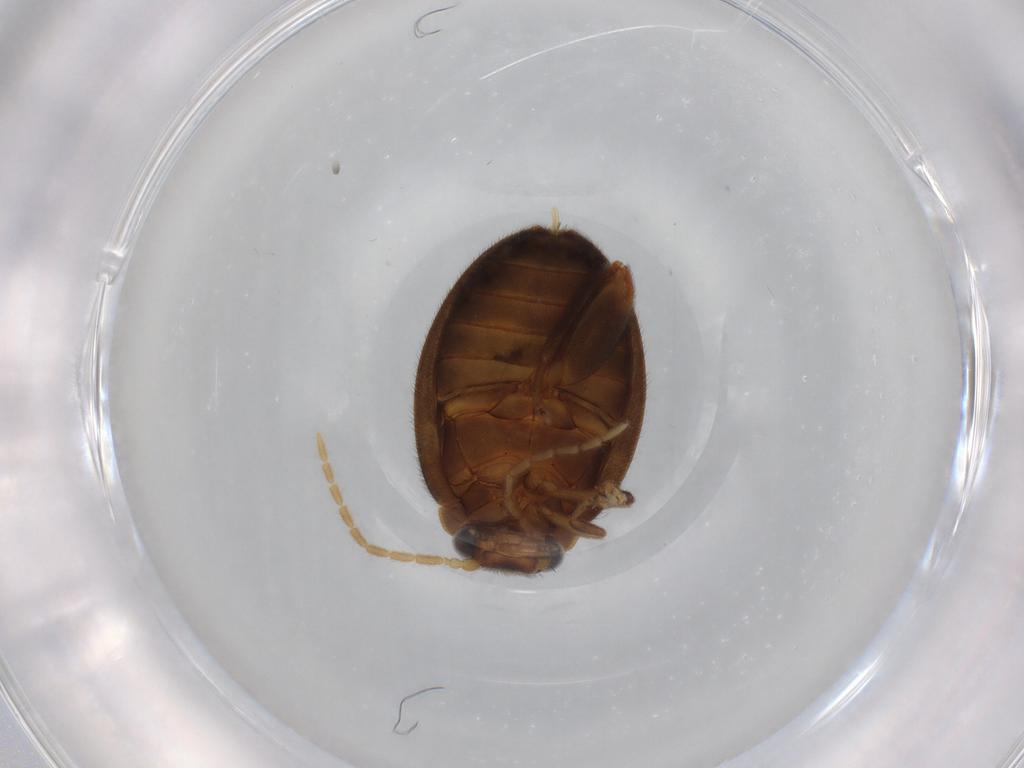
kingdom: Animalia
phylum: Arthropoda
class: Insecta
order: Coleoptera
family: Scirtidae
